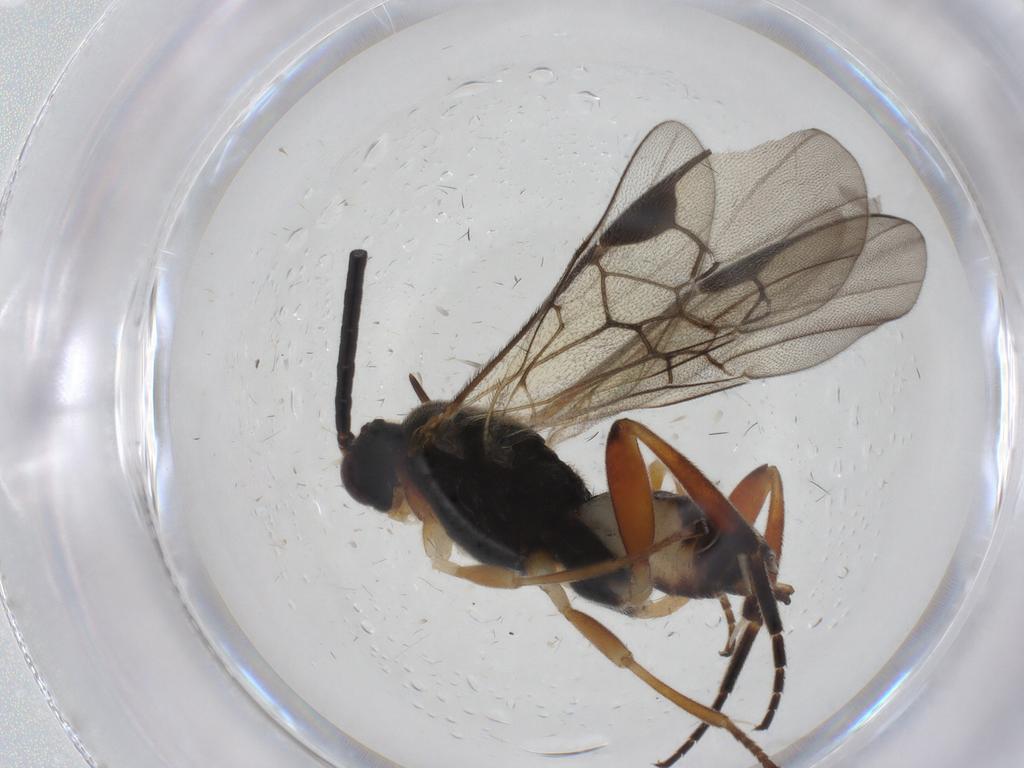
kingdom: Animalia
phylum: Arthropoda
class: Insecta
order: Lepidoptera
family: Tortricidae
